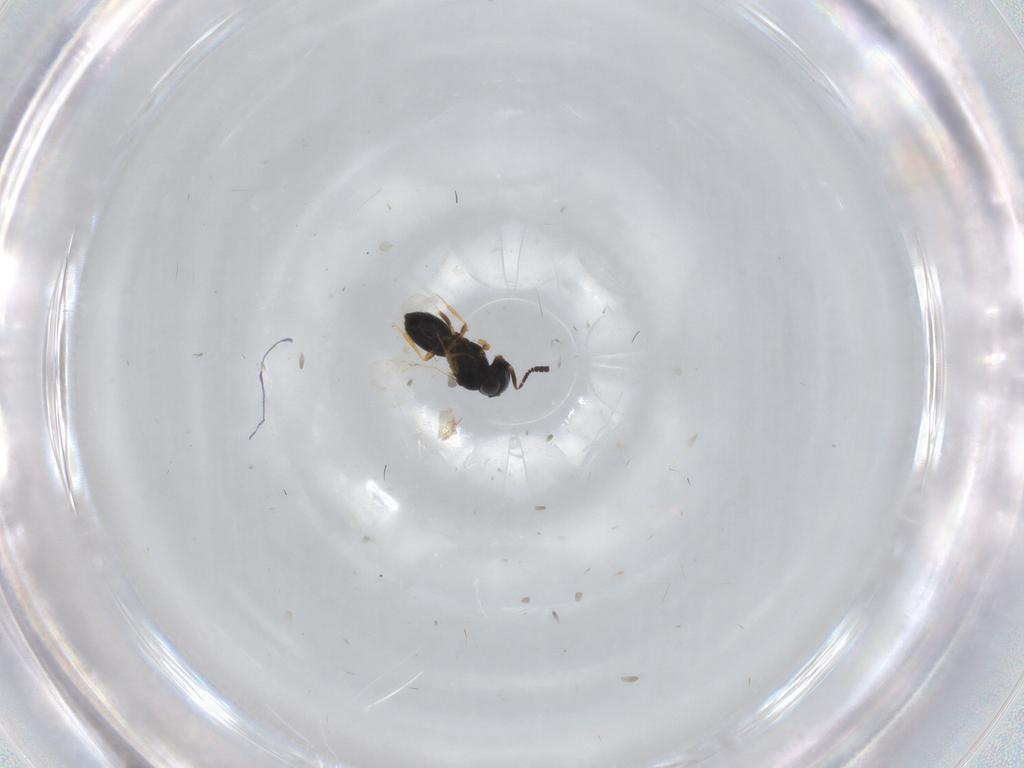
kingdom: Animalia
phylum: Arthropoda
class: Insecta
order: Hymenoptera
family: Scelionidae
